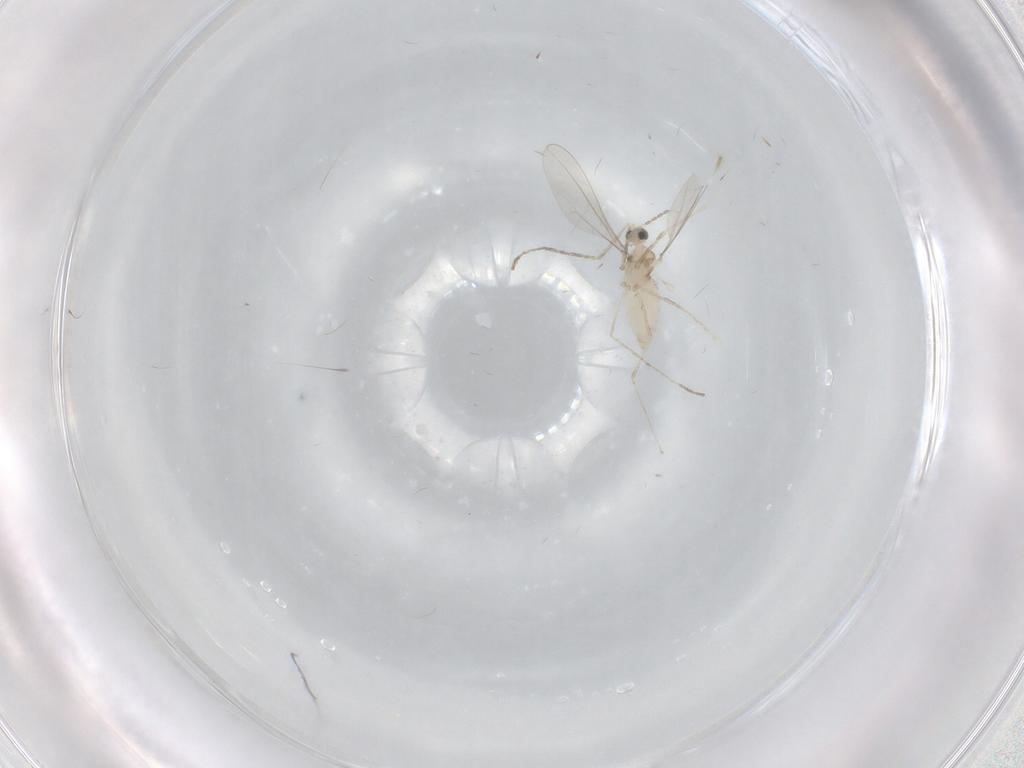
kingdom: Animalia
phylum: Arthropoda
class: Insecta
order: Diptera
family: Cecidomyiidae
